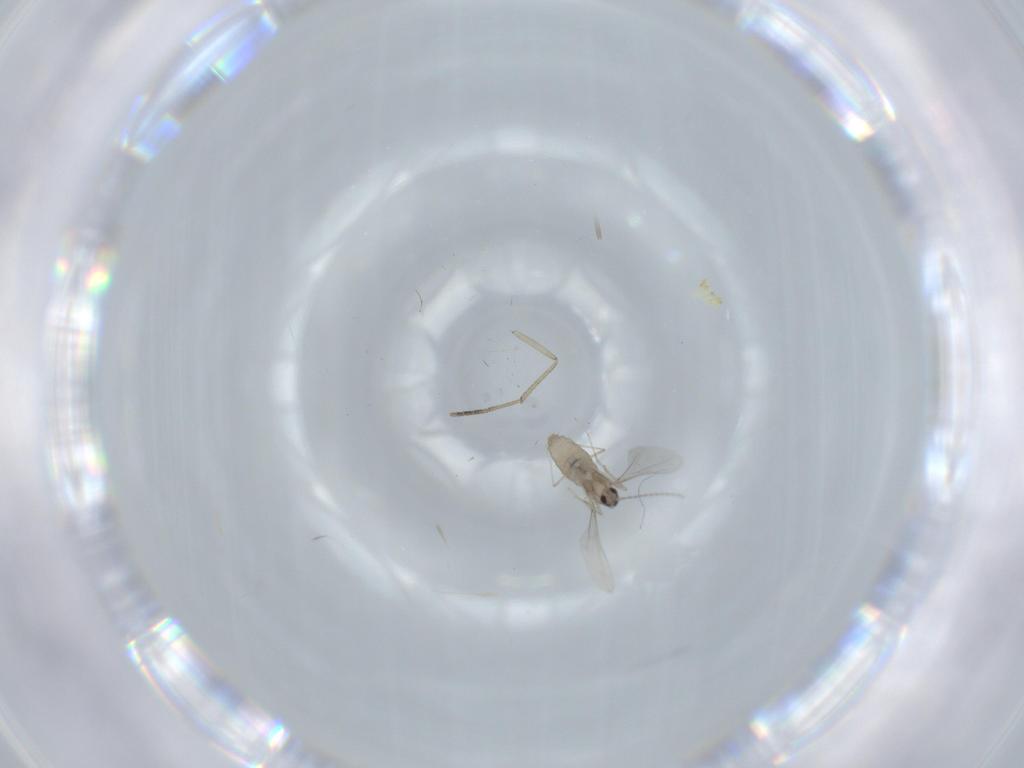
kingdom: Animalia
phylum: Arthropoda
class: Insecta
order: Diptera
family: Cecidomyiidae
